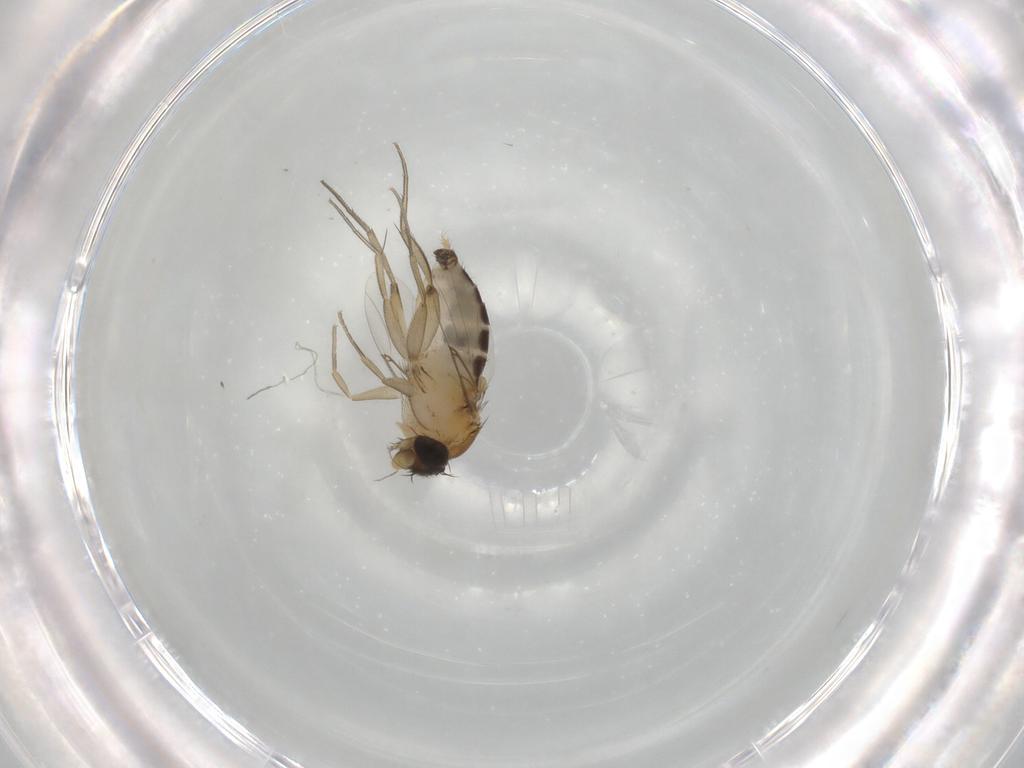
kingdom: Animalia
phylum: Arthropoda
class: Insecta
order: Diptera
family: Phoridae
